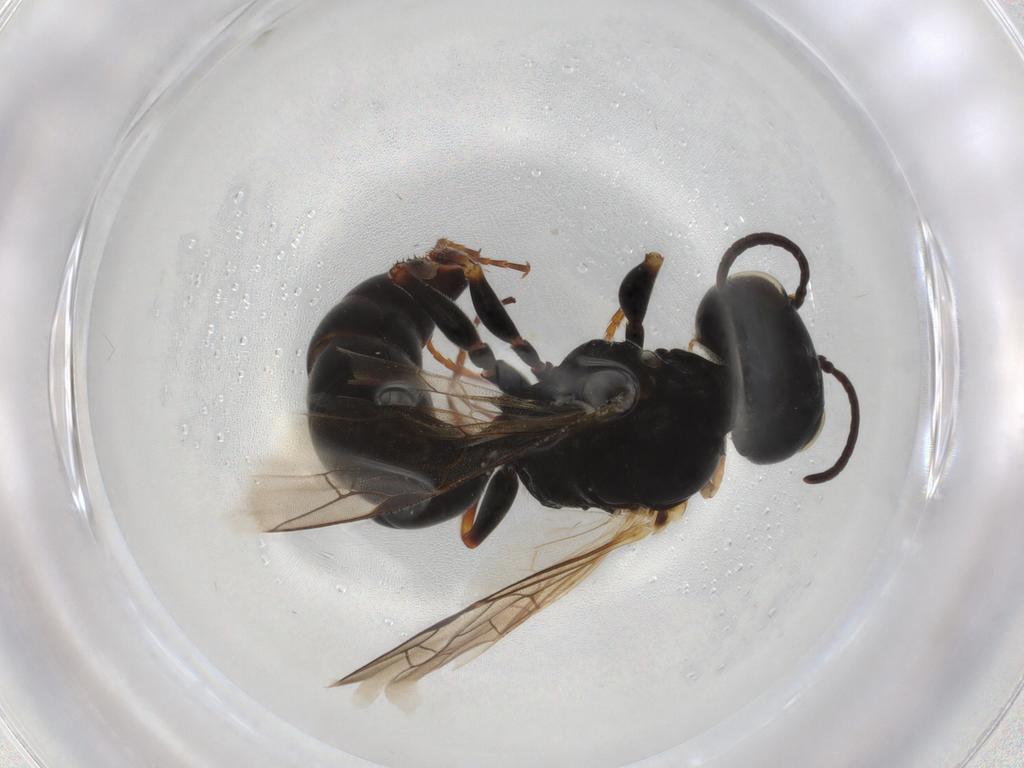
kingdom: Animalia
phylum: Arthropoda
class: Insecta
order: Hymenoptera
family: Crabronidae
